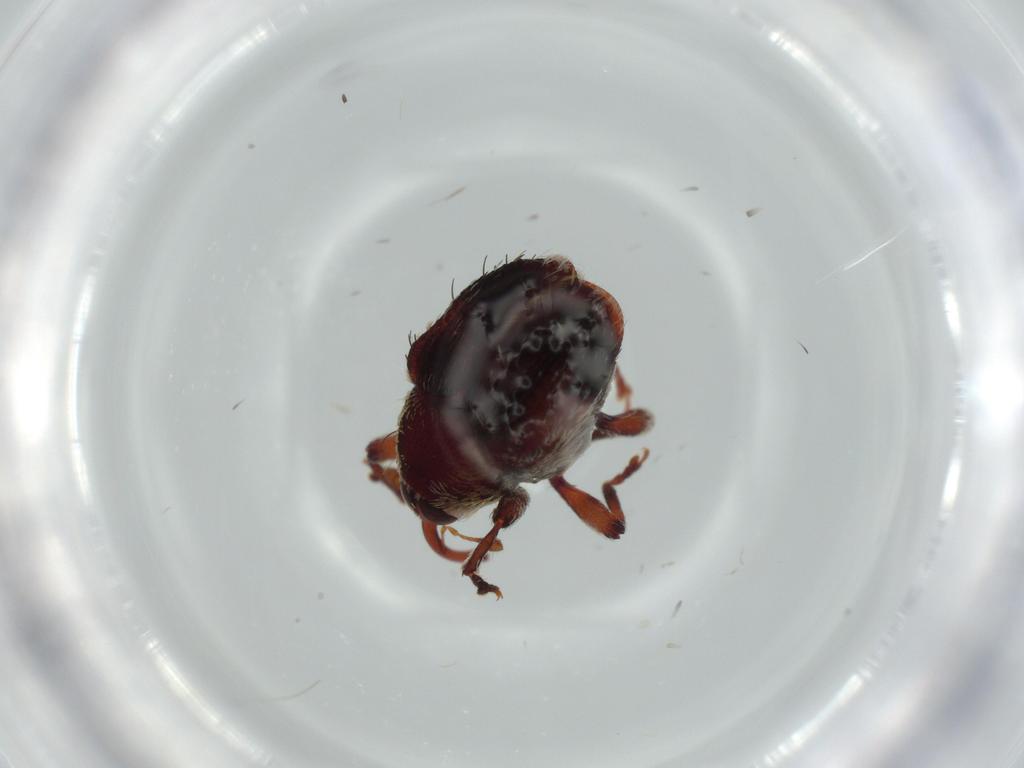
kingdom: Animalia
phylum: Arthropoda
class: Insecta
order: Coleoptera
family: Curculionidae
